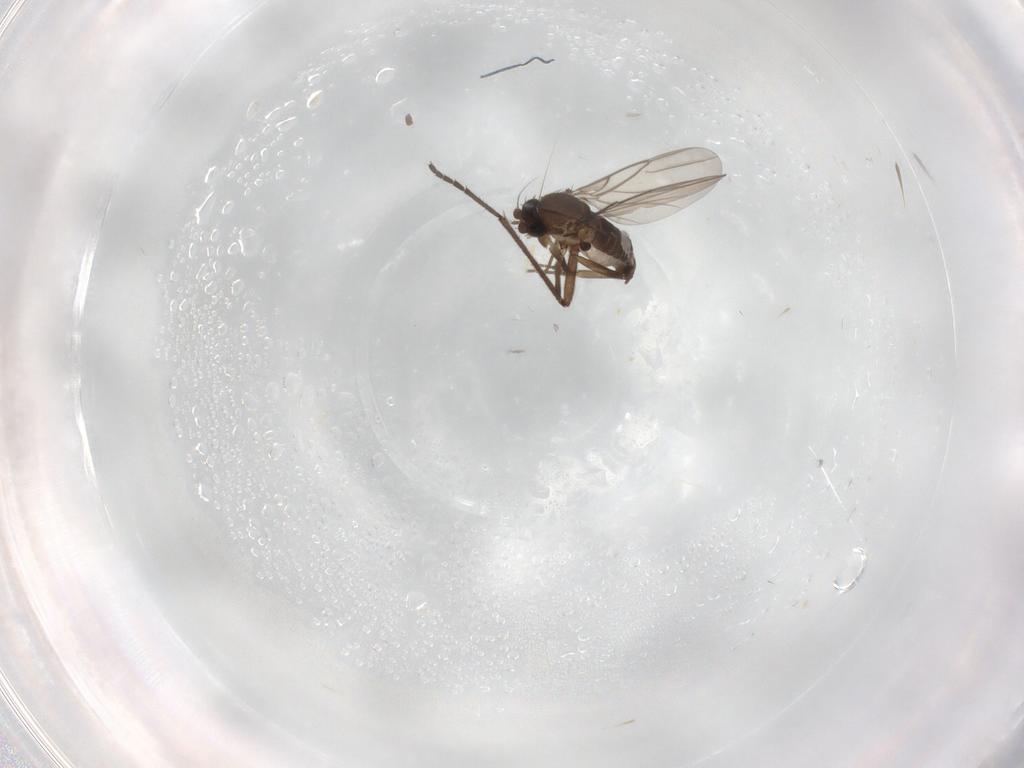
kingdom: Animalia
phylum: Arthropoda
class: Insecta
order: Diptera
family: Phoridae
